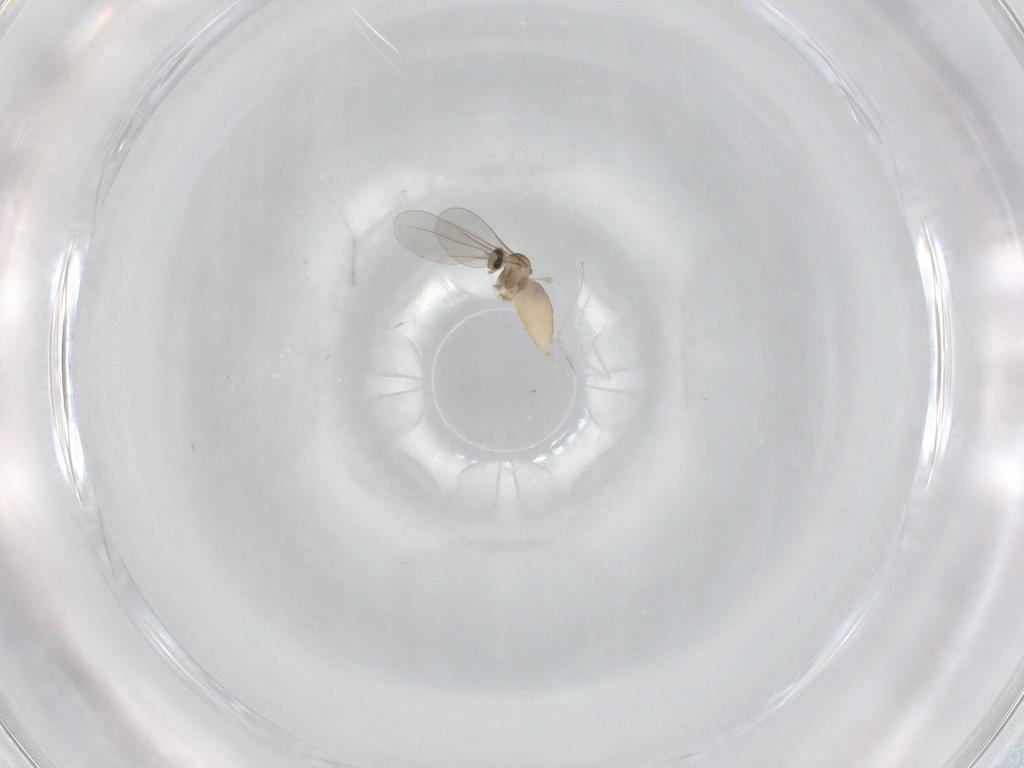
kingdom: Animalia
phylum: Arthropoda
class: Insecta
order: Diptera
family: Cecidomyiidae
